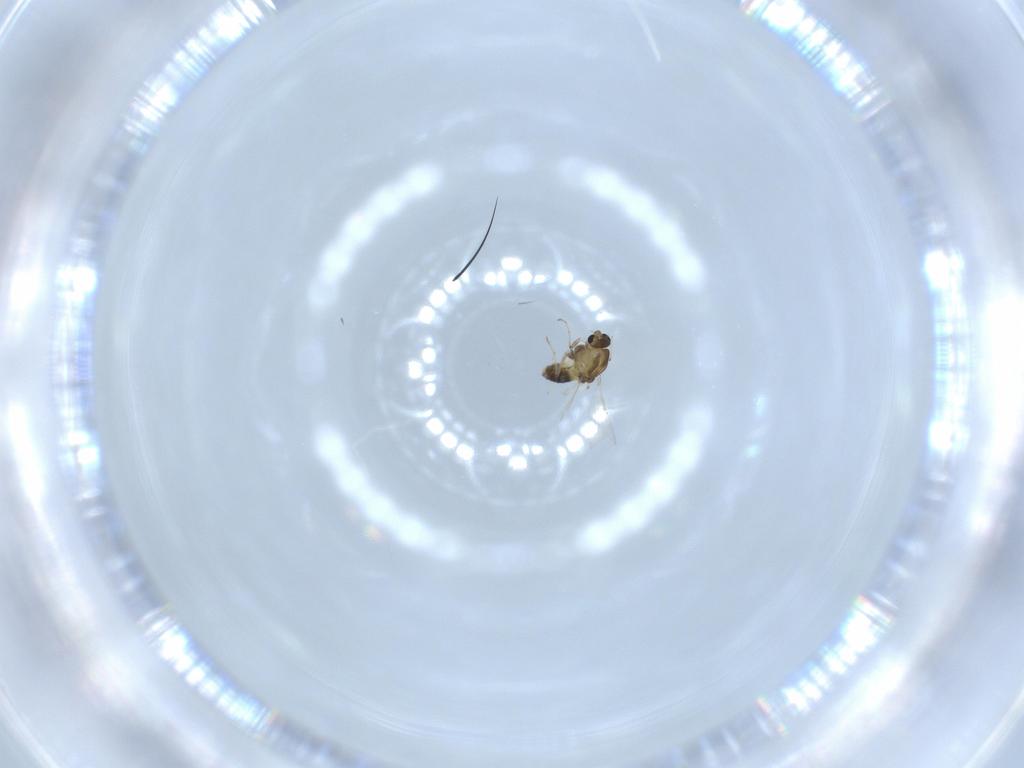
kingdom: Animalia
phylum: Arthropoda
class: Insecta
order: Diptera
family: Chironomidae
